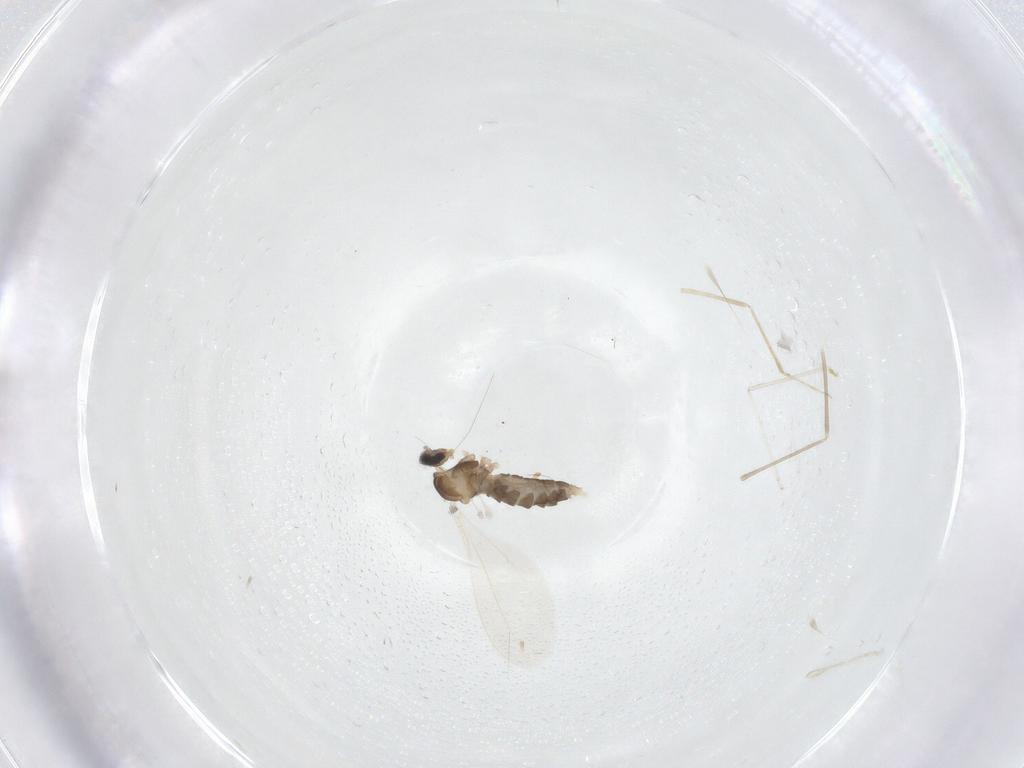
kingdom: Animalia
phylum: Arthropoda
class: Insecta
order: Diptera
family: Cecidomyiidae
